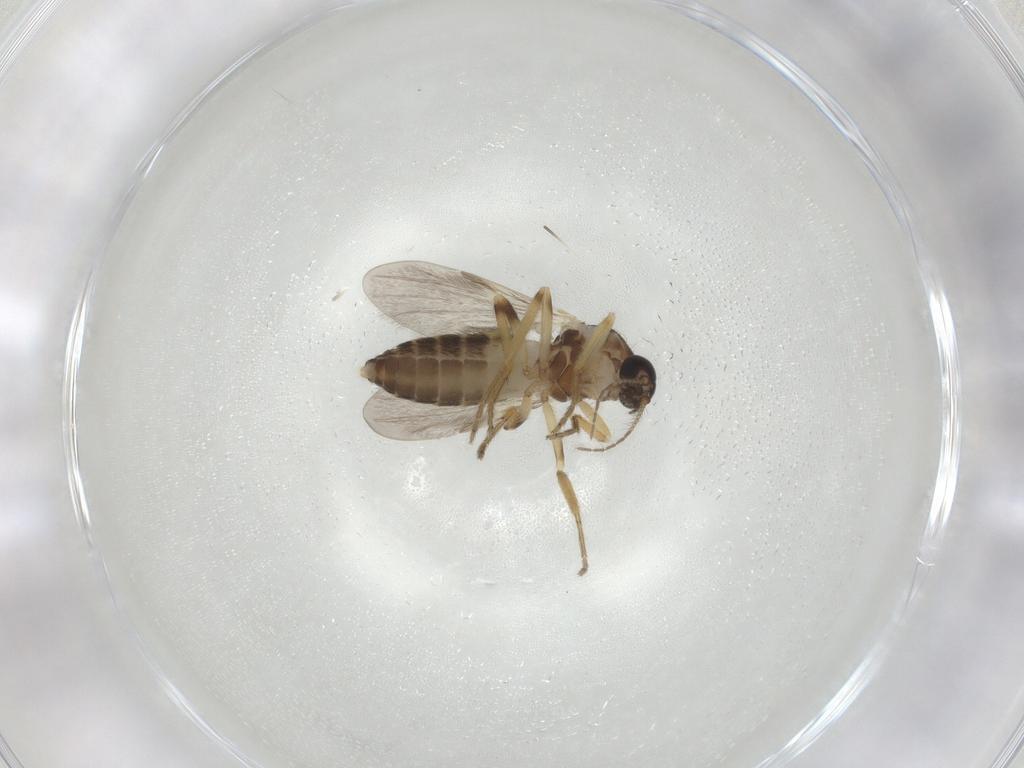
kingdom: Animalia
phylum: Arthropoda
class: Insecta
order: Diptera
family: Ceratopogonidae
